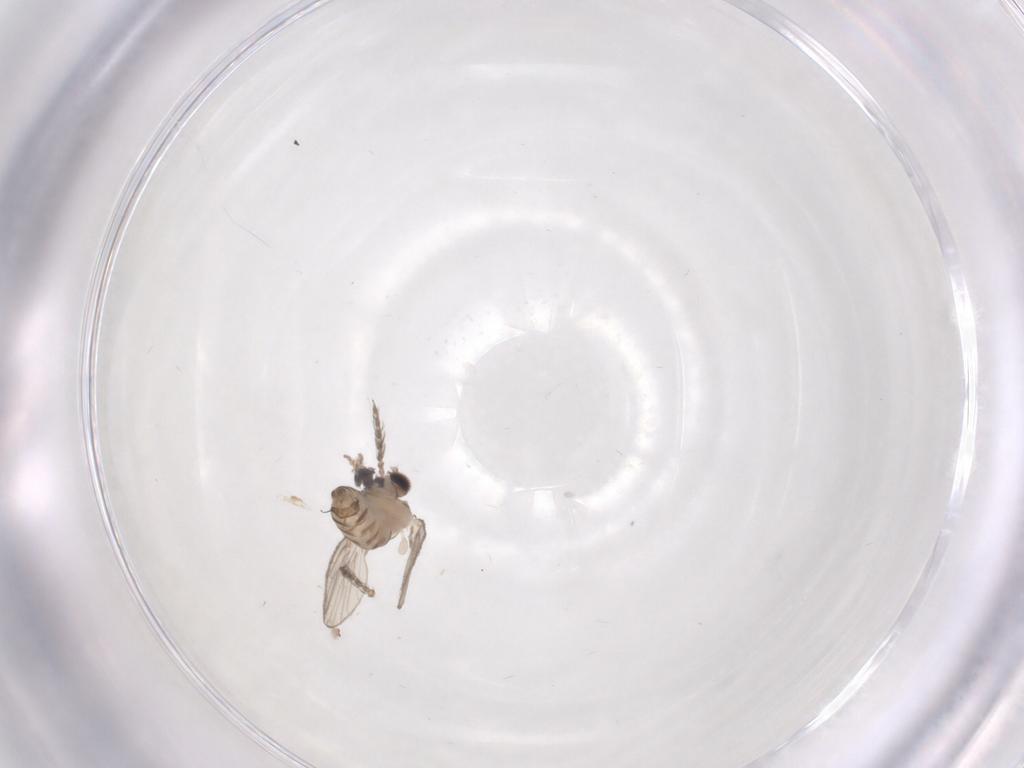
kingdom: Animalia
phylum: Arthropoda
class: Insecta
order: Diptera
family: Psychodidae
